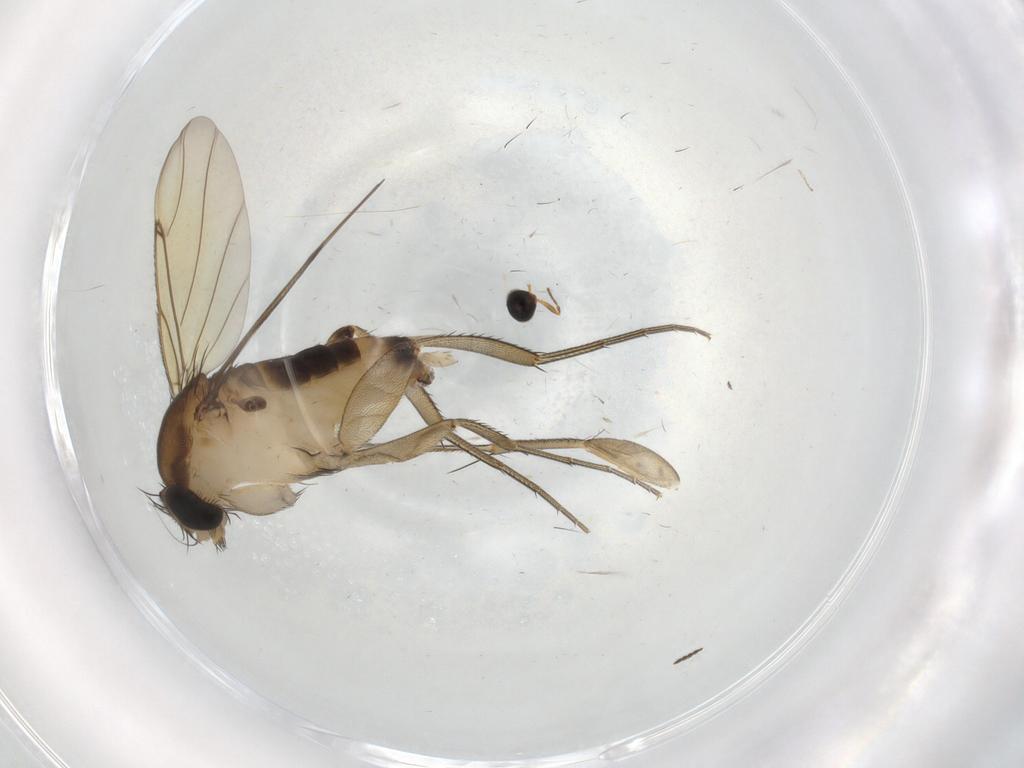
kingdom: Animalia
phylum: Arthropoda
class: Insecta
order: Diptera
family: Phoridae
